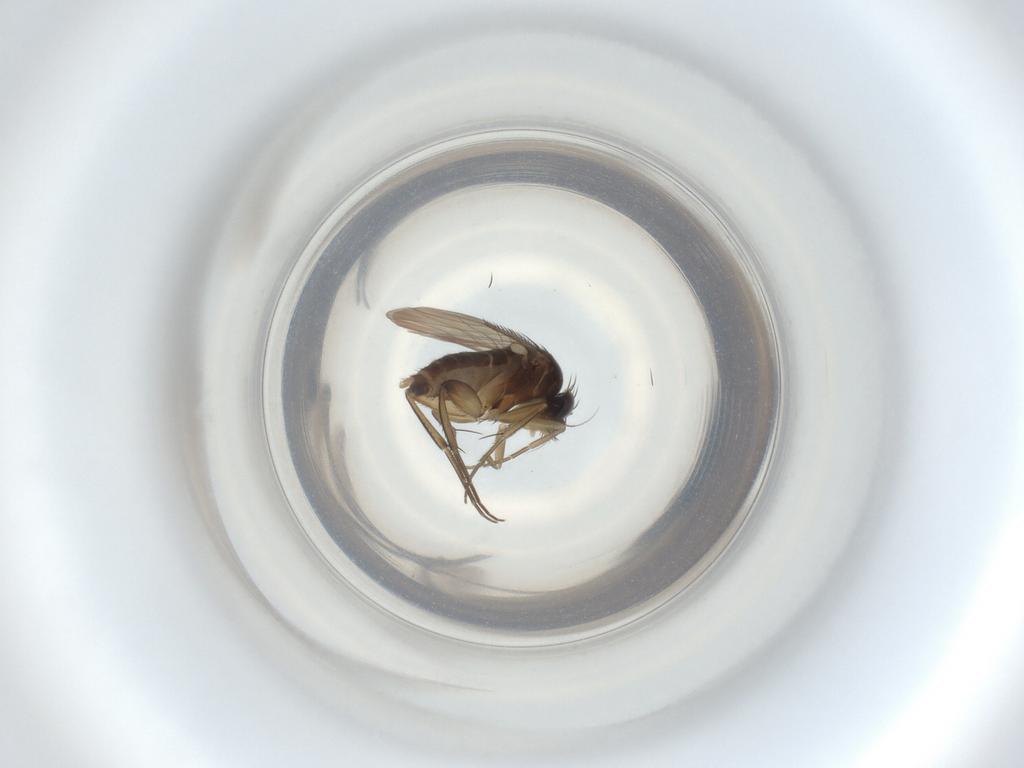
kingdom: Animalia
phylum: Arthropoda
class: Insecta
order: Diptera
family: Phoridae
